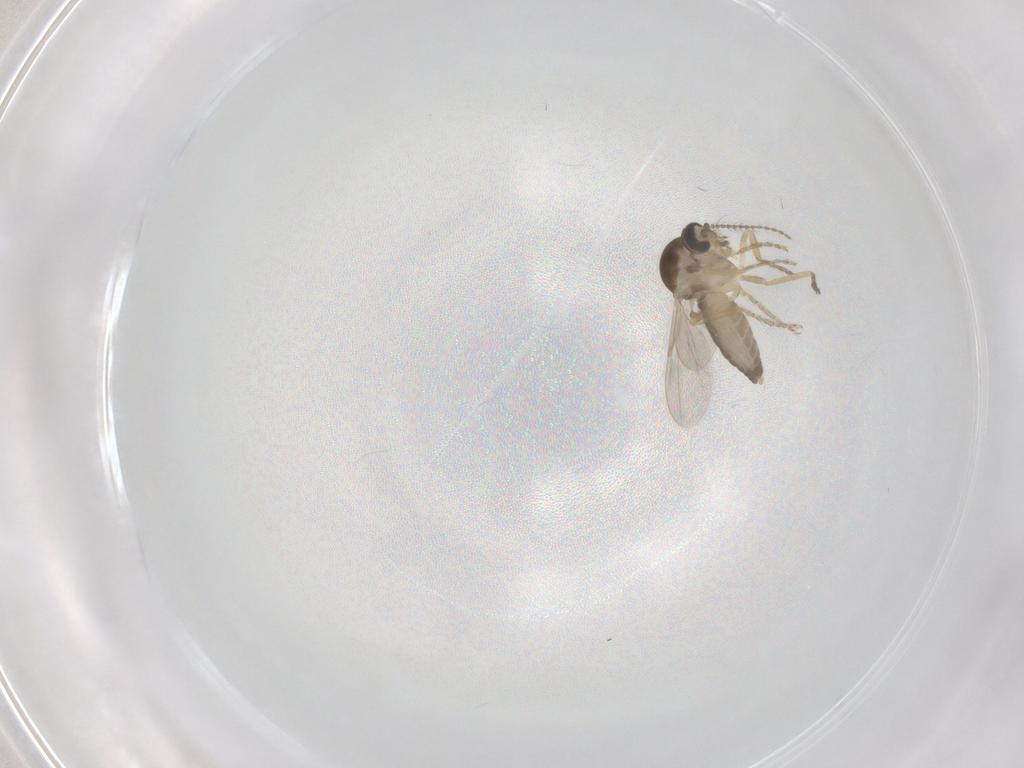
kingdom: Animalia
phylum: Arthropoda
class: Insecta
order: Diptera
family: Ceratopogonidae
